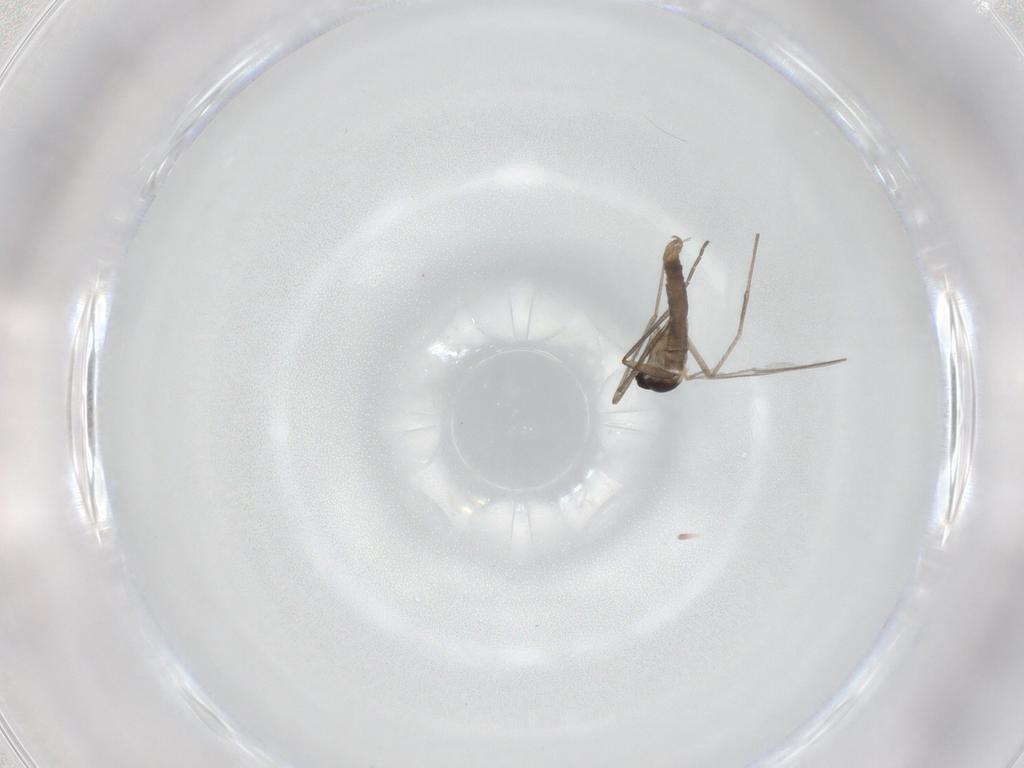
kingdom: Animalia
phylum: Arthropoda
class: Insecta
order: Diptera
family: Cecidomyiidae
